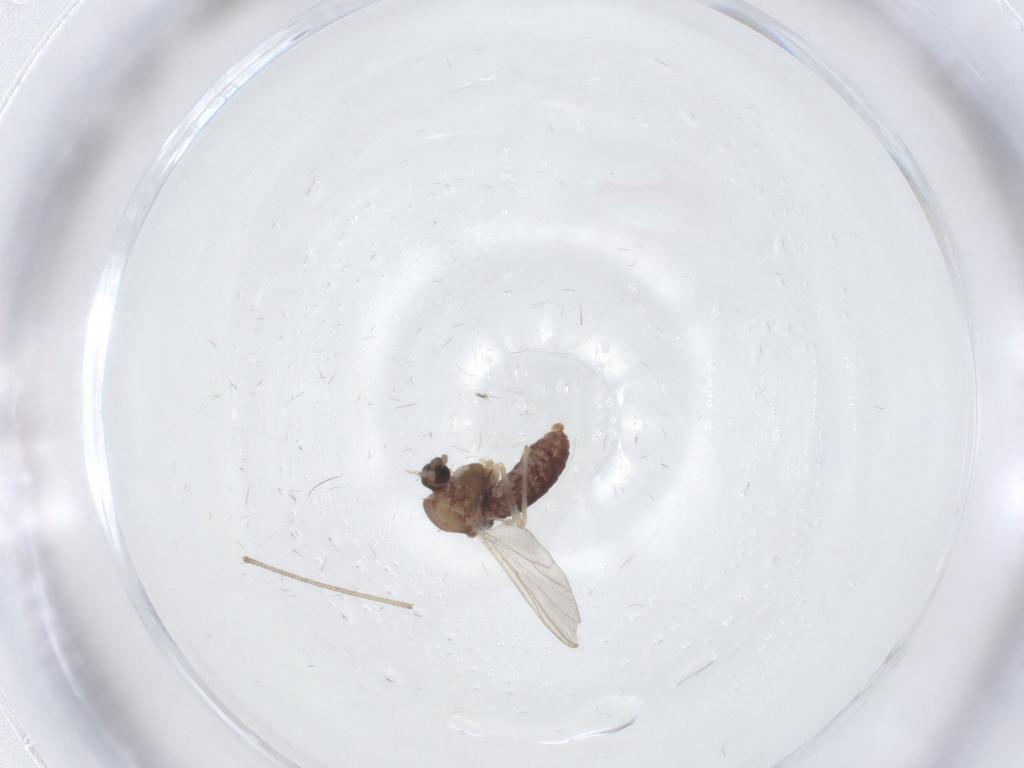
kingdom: Animalia
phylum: Arthropoda
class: Insecta
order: Diptera
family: Chironomidae
